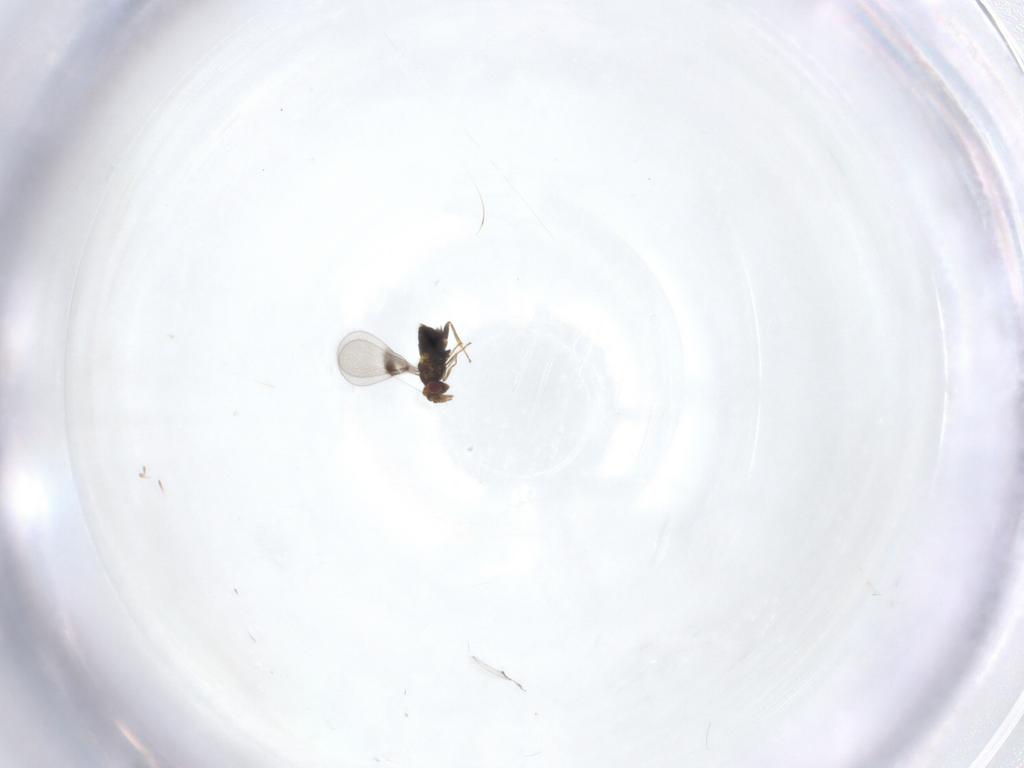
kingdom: Animalia
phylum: Arthropoda
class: Insecta
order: Hymenoptera
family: Trichogrammatidae
